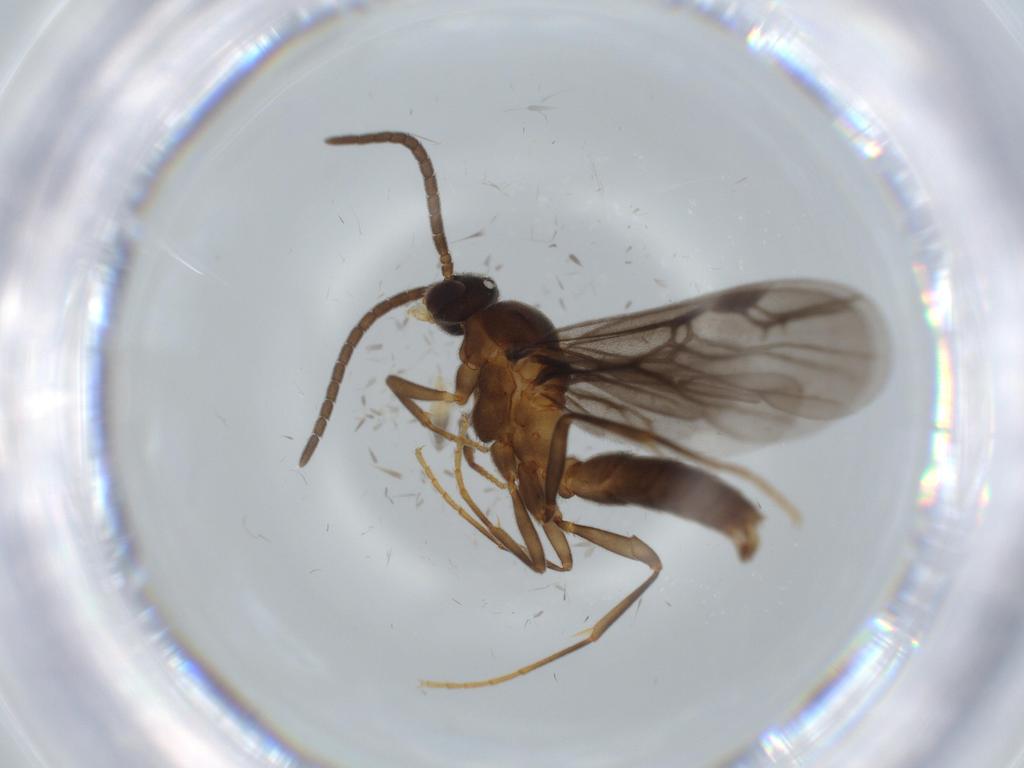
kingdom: Animalia
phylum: Arthropoda
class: Insecta
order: Hymenoptera
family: Formicidae
